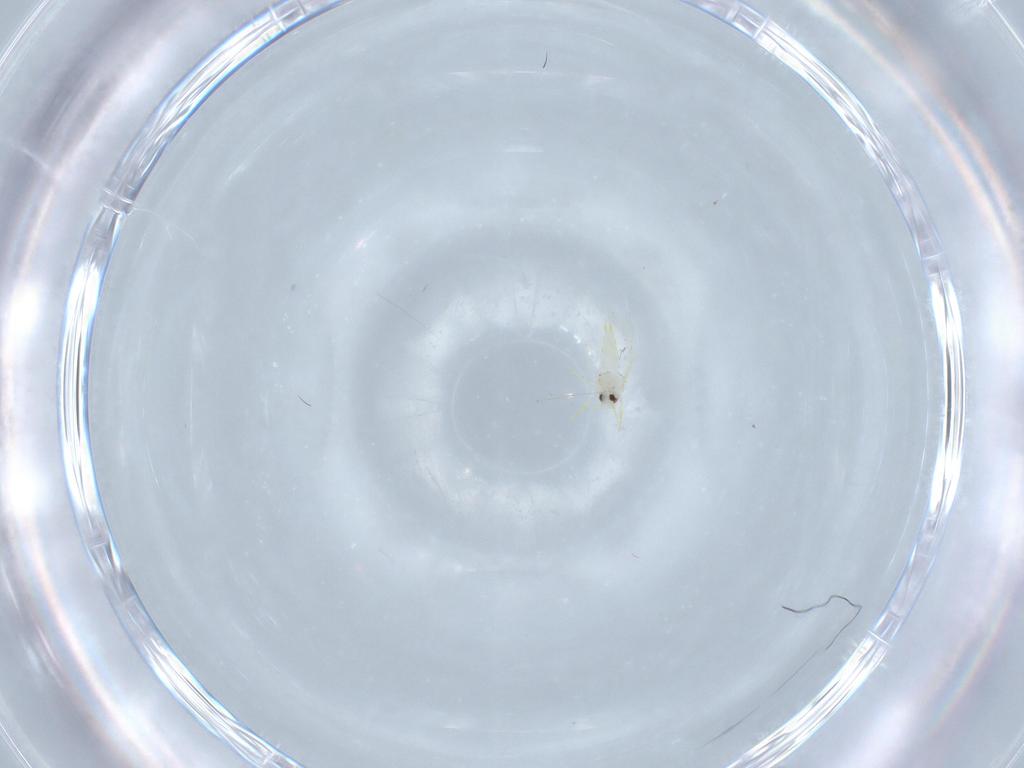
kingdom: Animalia
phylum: Arthropoda
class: Insecta
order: Hemiptera
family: Aleyrodidae
